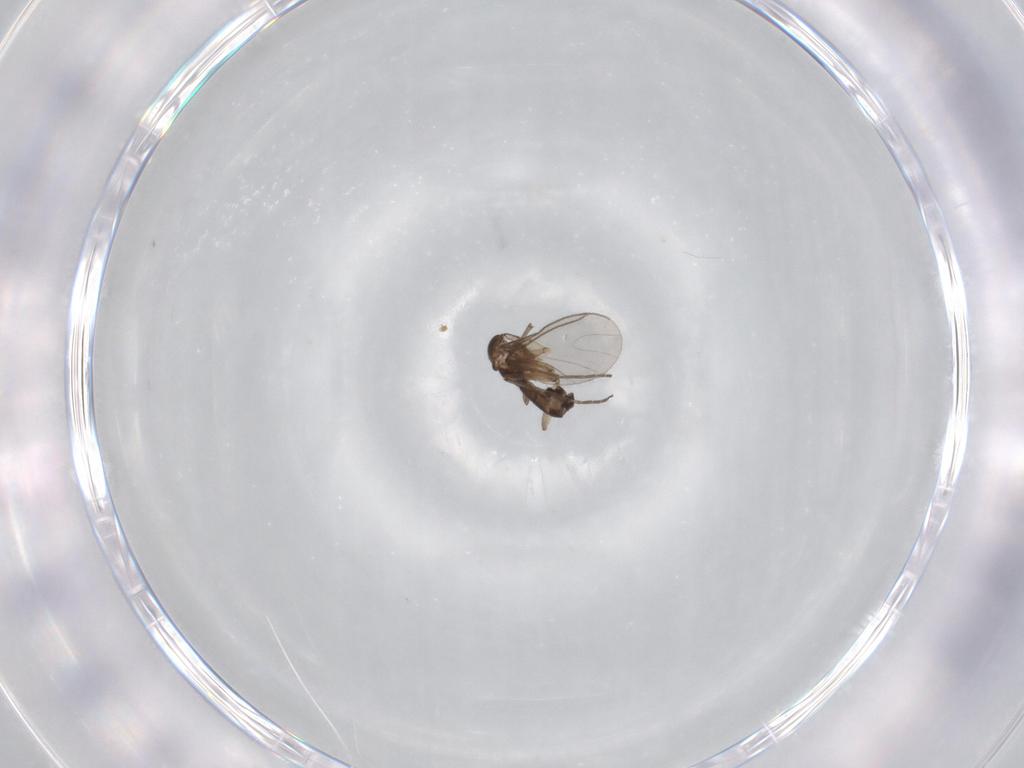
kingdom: Animalia
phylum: Arthropoda
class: Insecta
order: Diptera
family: Sciaridae
